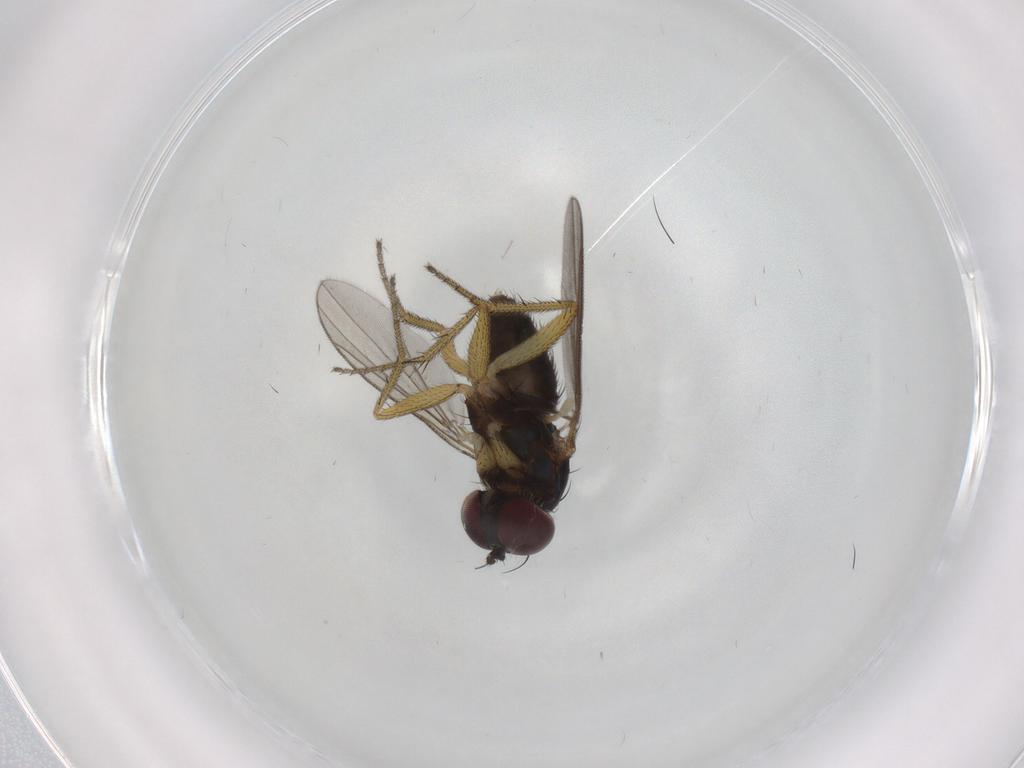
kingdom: Animalia
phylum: Arthropoda
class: Insecta
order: Diptera
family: Sciaridae
